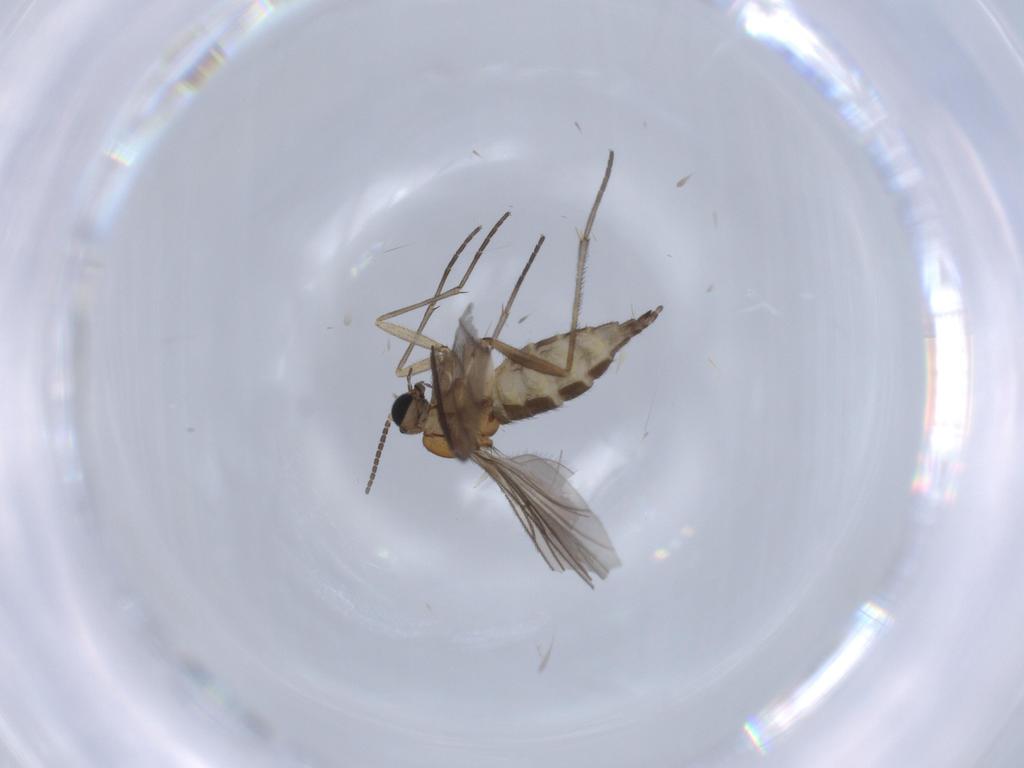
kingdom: Animalia
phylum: Arthropoda
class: Insecta
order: Diptera
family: Sciaridae
